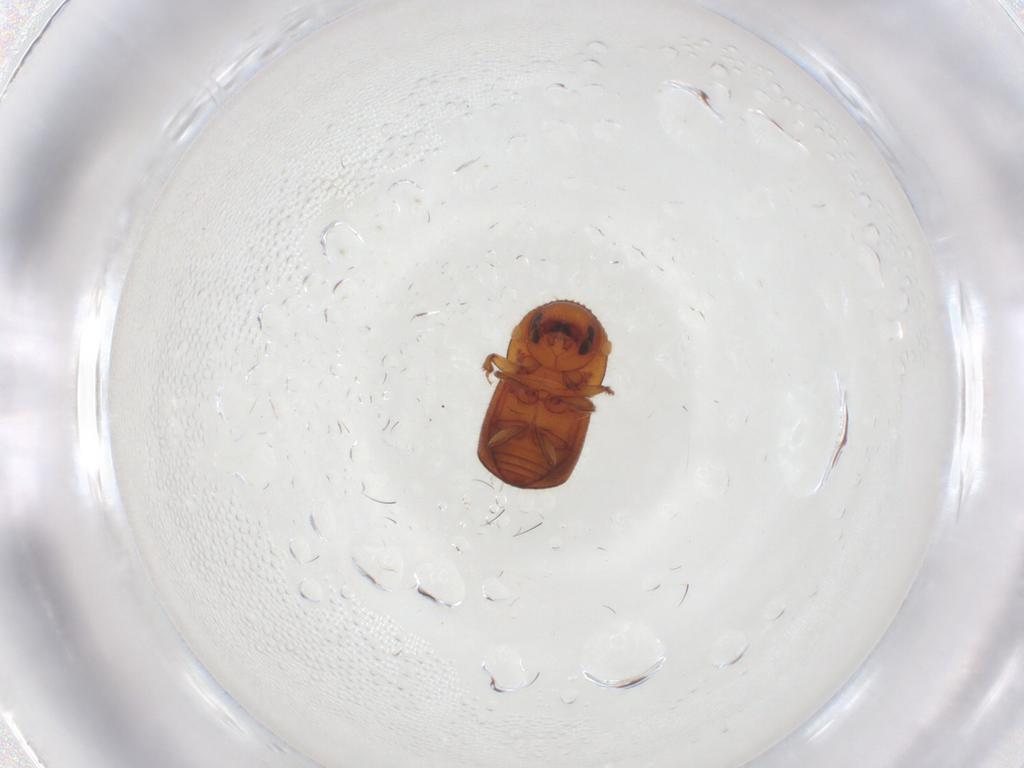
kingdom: Animalia
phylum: Arthropoda
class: Insecta
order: Coleoptera
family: Curculionidae
